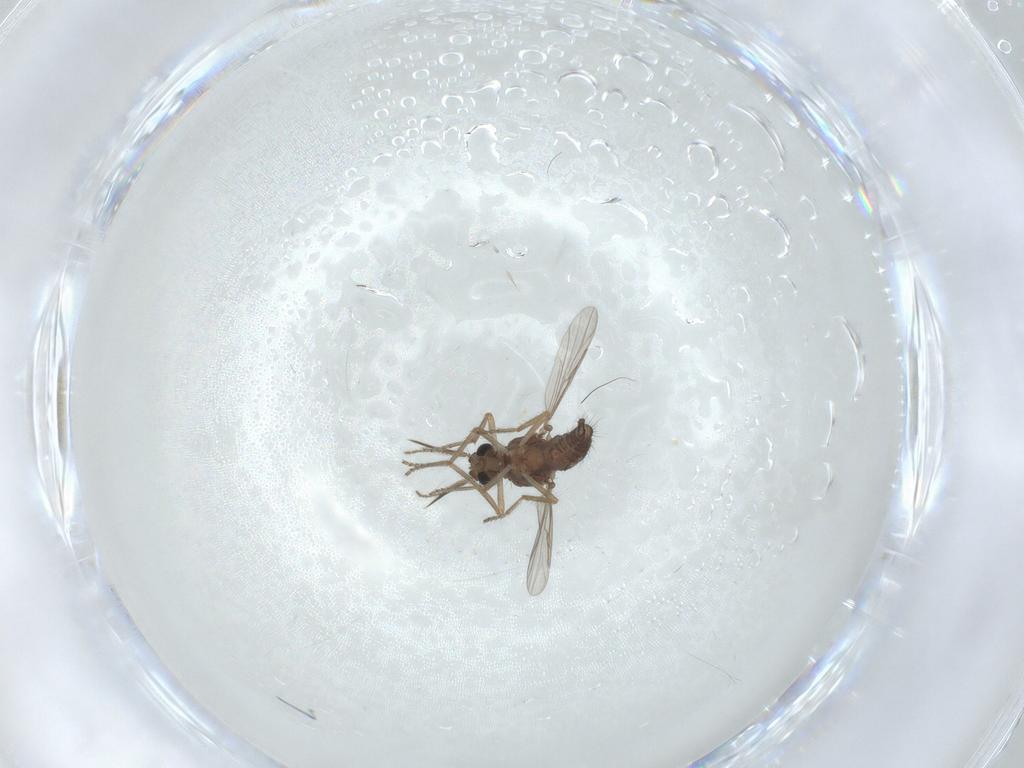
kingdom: Animalia
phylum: Arthropoda
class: Insecta
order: Diptera
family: Ceratopogonidae
